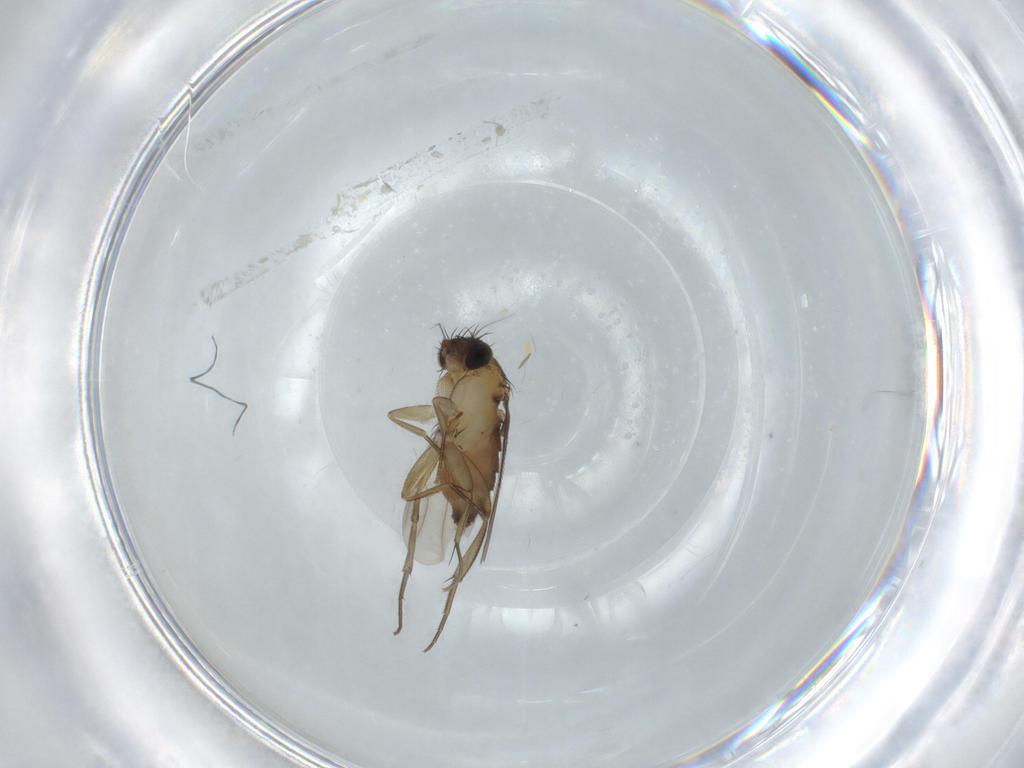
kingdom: Animalia
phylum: Arthropoda
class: Insecta
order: Diptera
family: Phoridae
